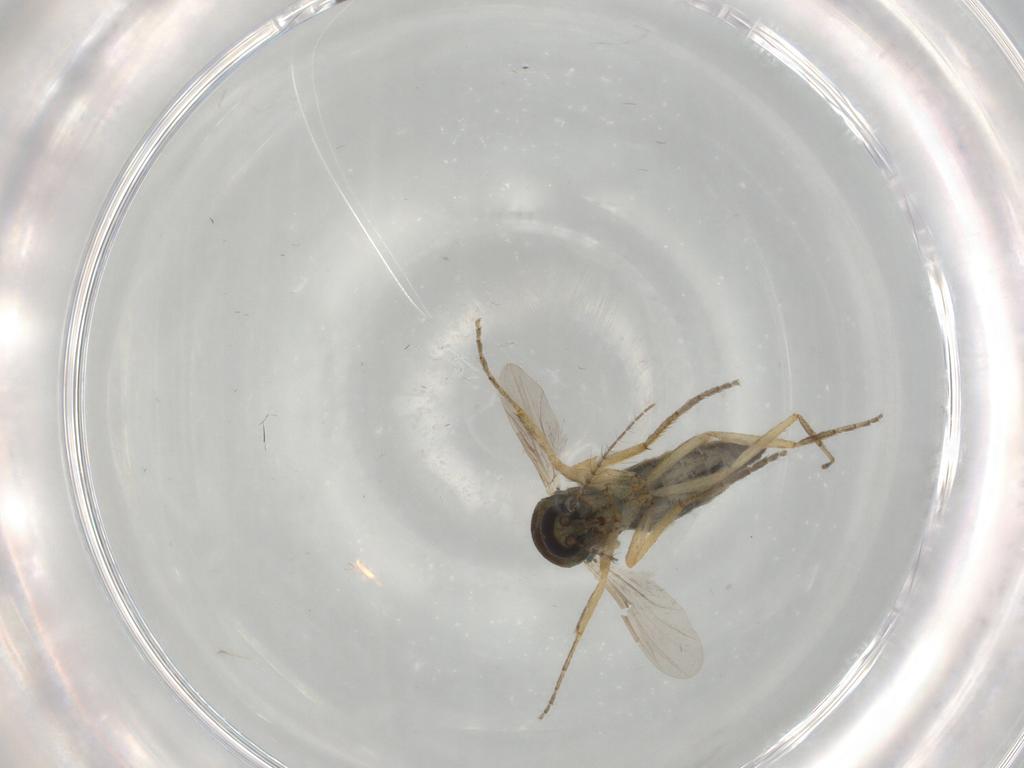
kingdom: Animalia
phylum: Arthropoda
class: Insecta
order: Diptera
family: Ceratopogonidae
